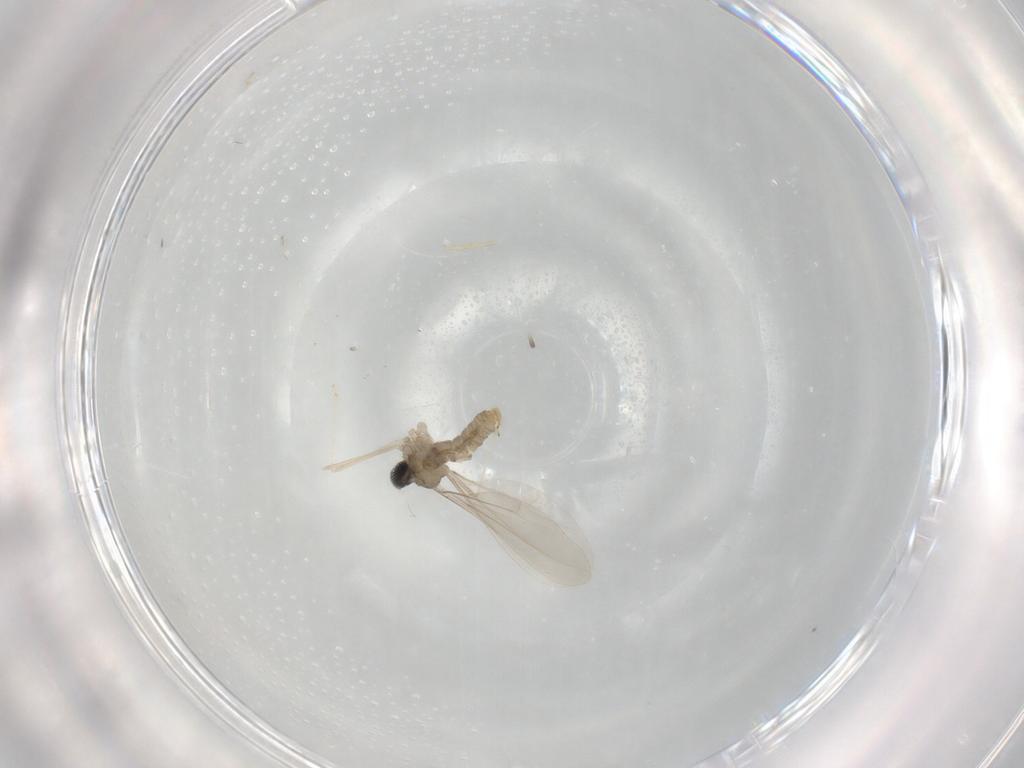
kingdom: Animalia
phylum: Arthropoda
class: Insecta
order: Diptera
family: Cecidomyiidae
